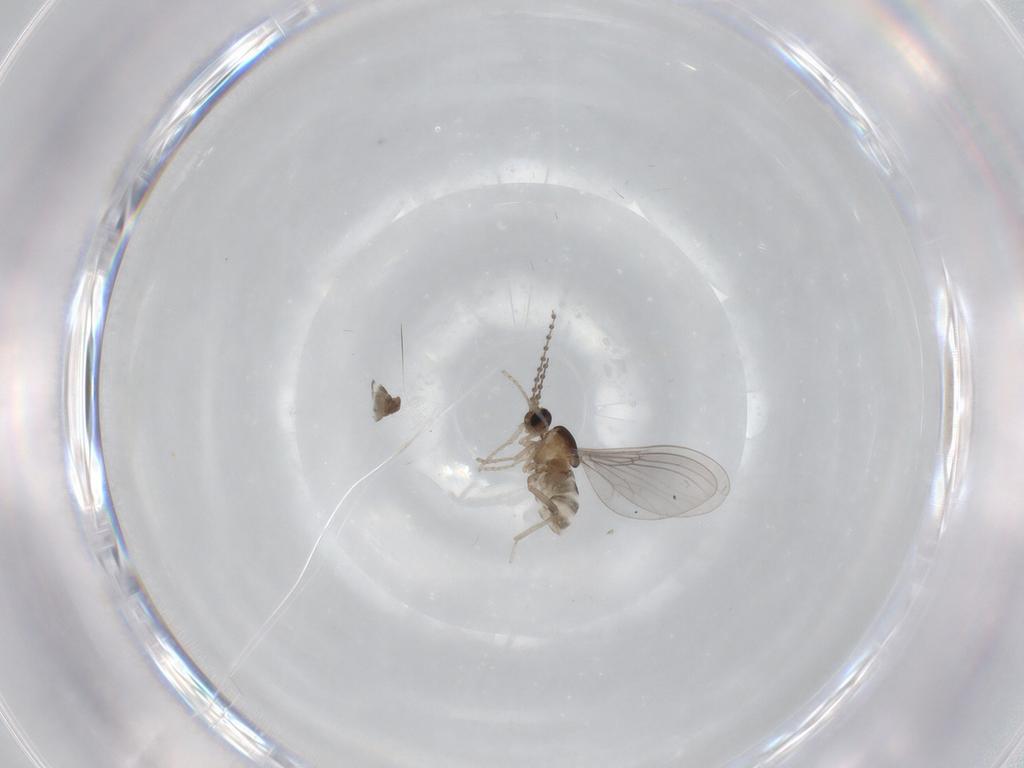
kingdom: Animalia
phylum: Arthropoda
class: Insecta
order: Diptera
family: Cecidomyiidae
